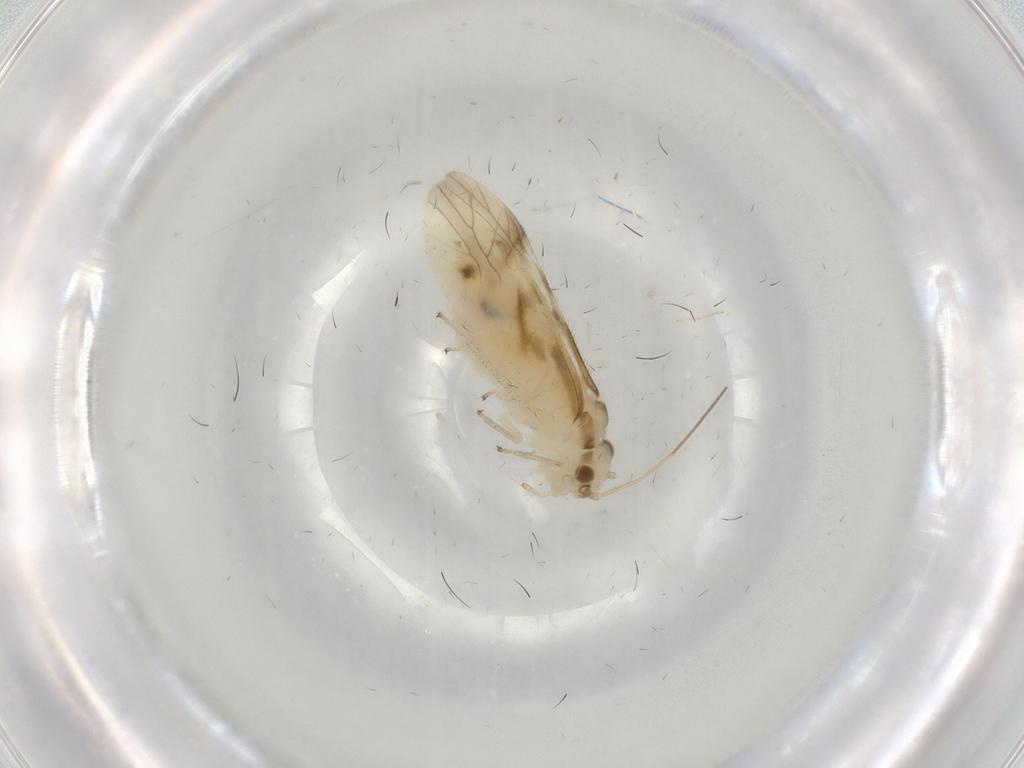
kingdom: Animalia
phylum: Arthropoda
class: Insecta
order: Psocodea
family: Caeciliusidae
